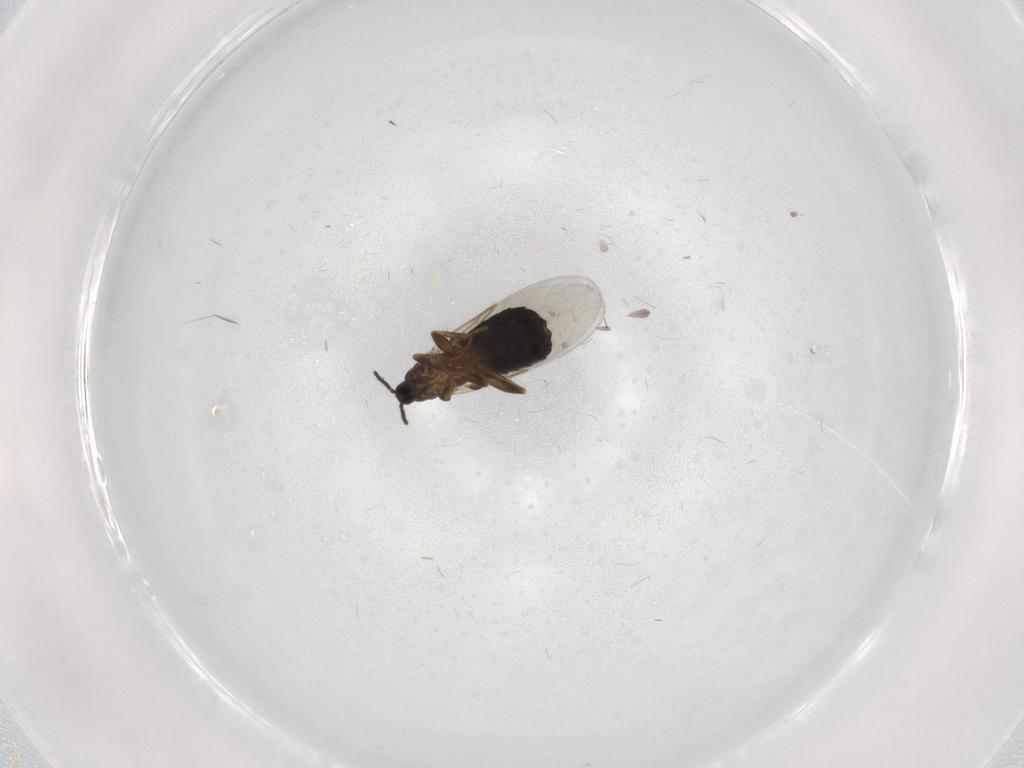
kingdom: Animalia
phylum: Arthropoda
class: Insecta
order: Diptera
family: Scatopsidae
